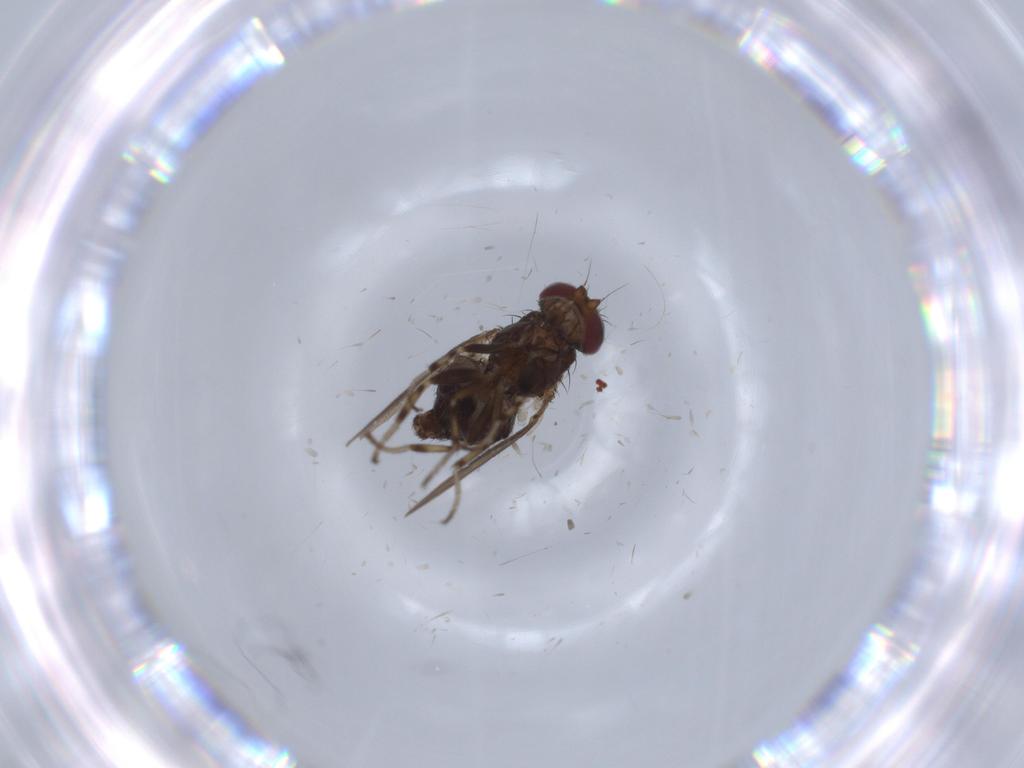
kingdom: Animalia
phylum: Arthropoda
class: Insecta
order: Diptera
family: Heleomyzidae
